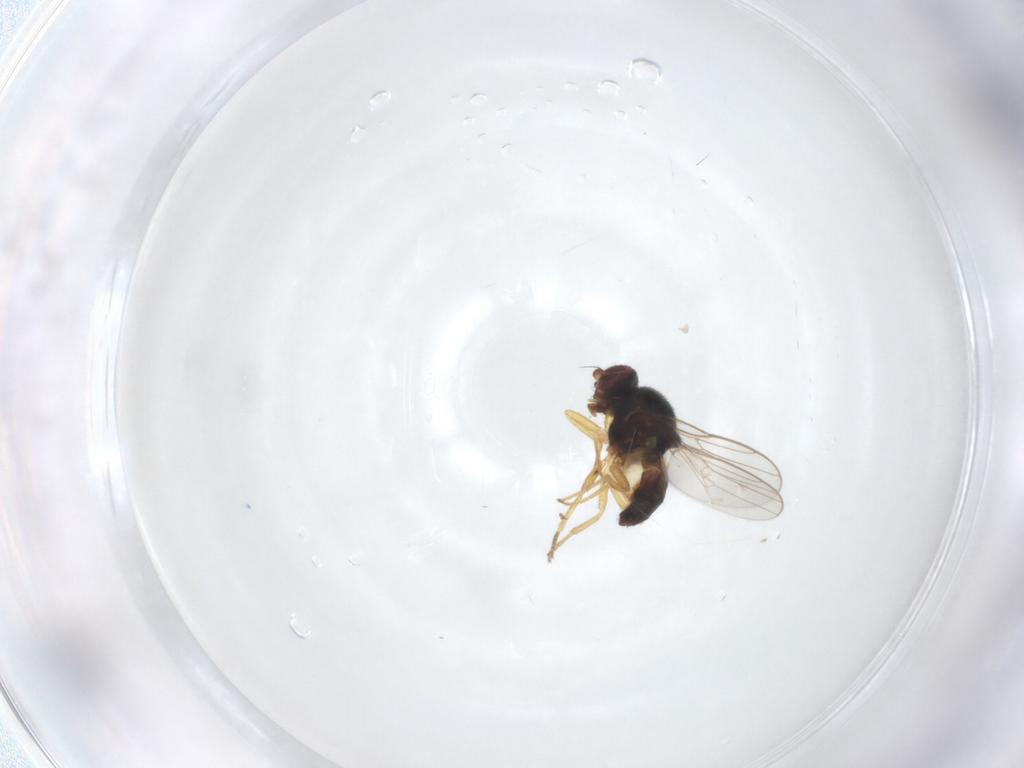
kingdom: Animalia
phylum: Arthropoda
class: Insecta
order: Diptera
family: Chloropidae
